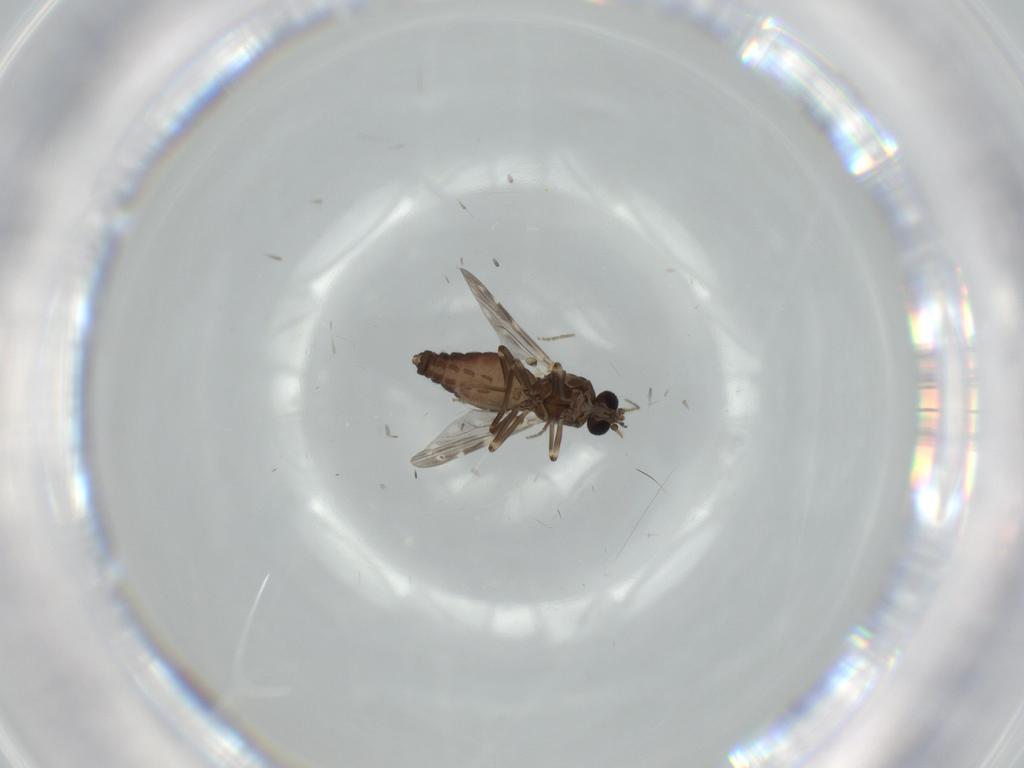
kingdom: Animalia
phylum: Arthropoda
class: Insecta
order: Diptera
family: Ceratopogonidae
